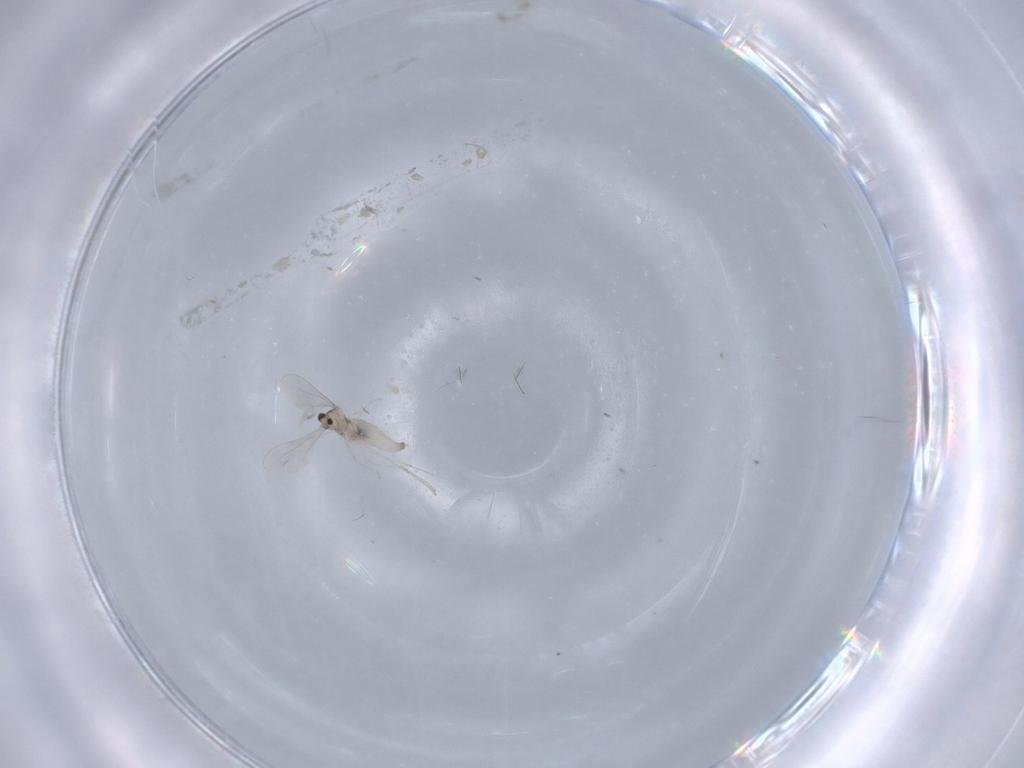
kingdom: Animalia
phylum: Arthropoda
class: Insecta
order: Diptera
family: Cecidomyiidae
